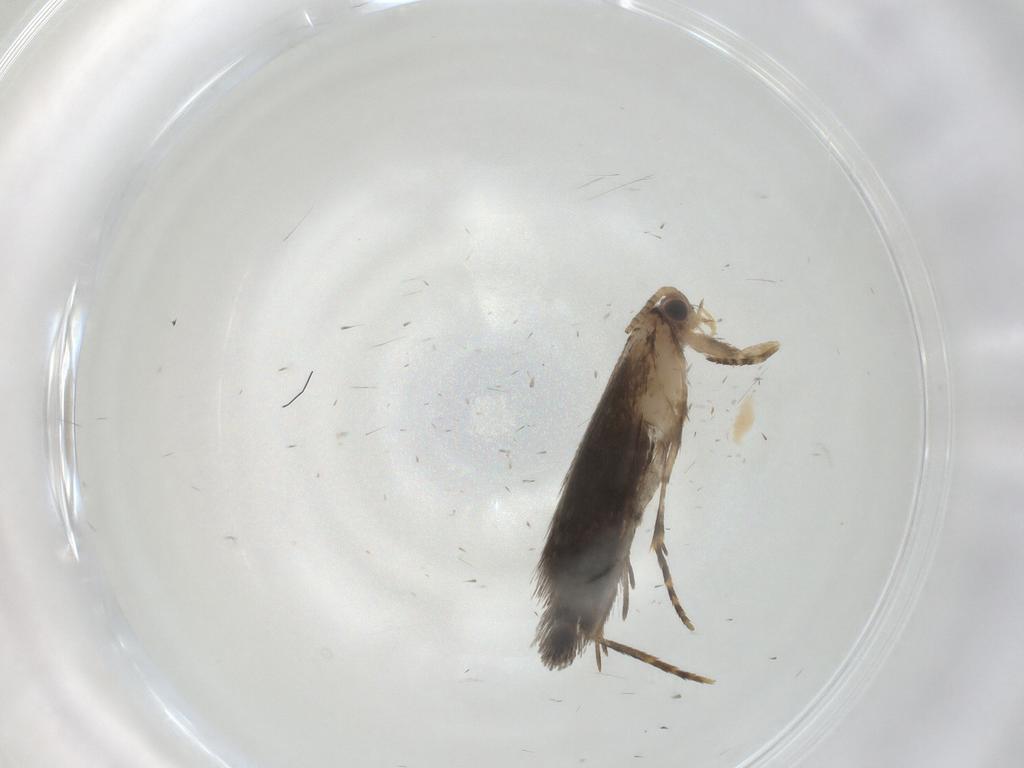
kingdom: Animalia
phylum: Arthropoda
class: Insecta
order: Lepidoptera
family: Tineidae
